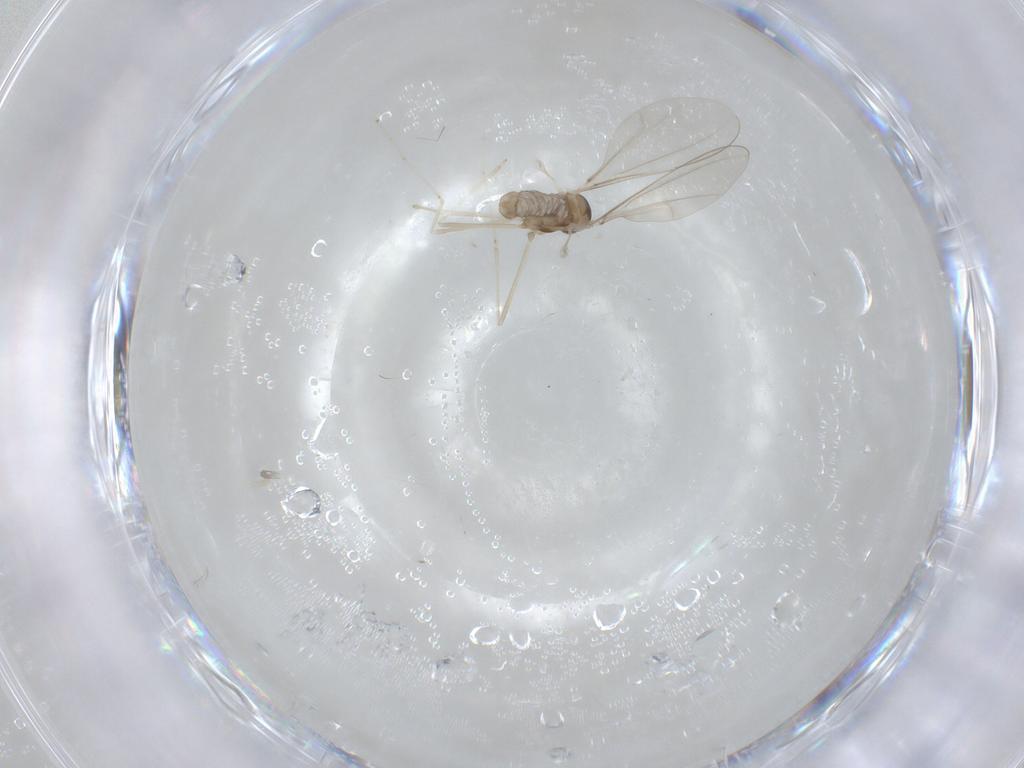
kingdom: Animalia
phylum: Arthropoda
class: Insecta
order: Diptera
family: Cecidomyiidae
